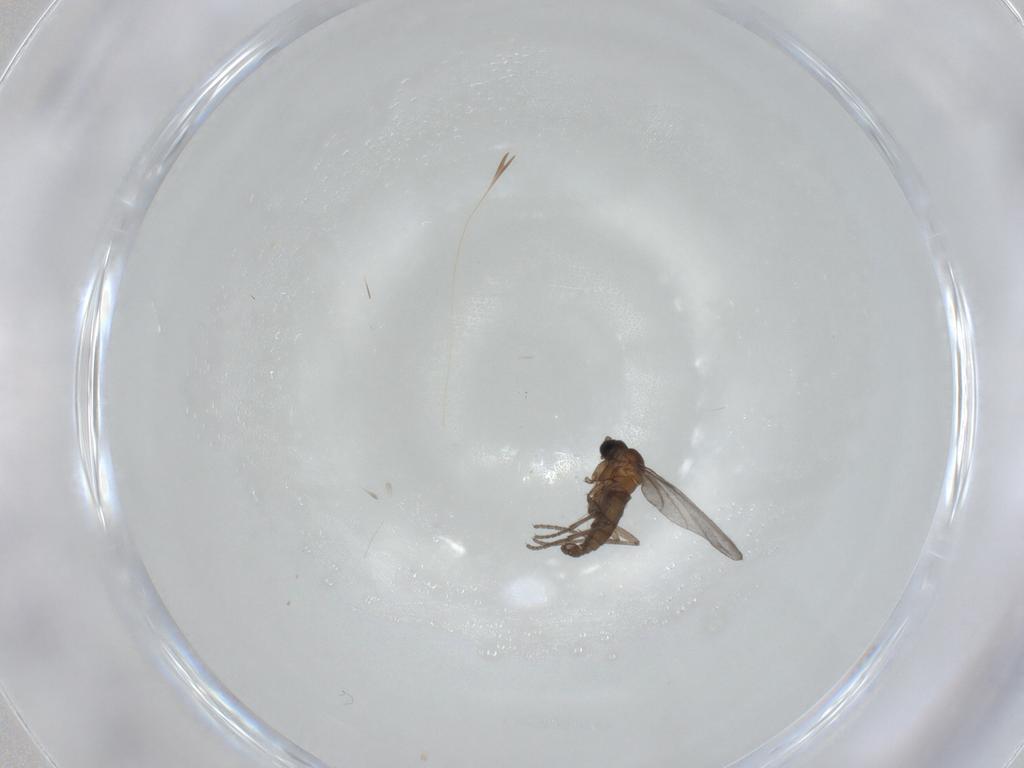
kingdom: Animalia
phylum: Arthropoda
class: Insecta
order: Diptera
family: Sciaridae
